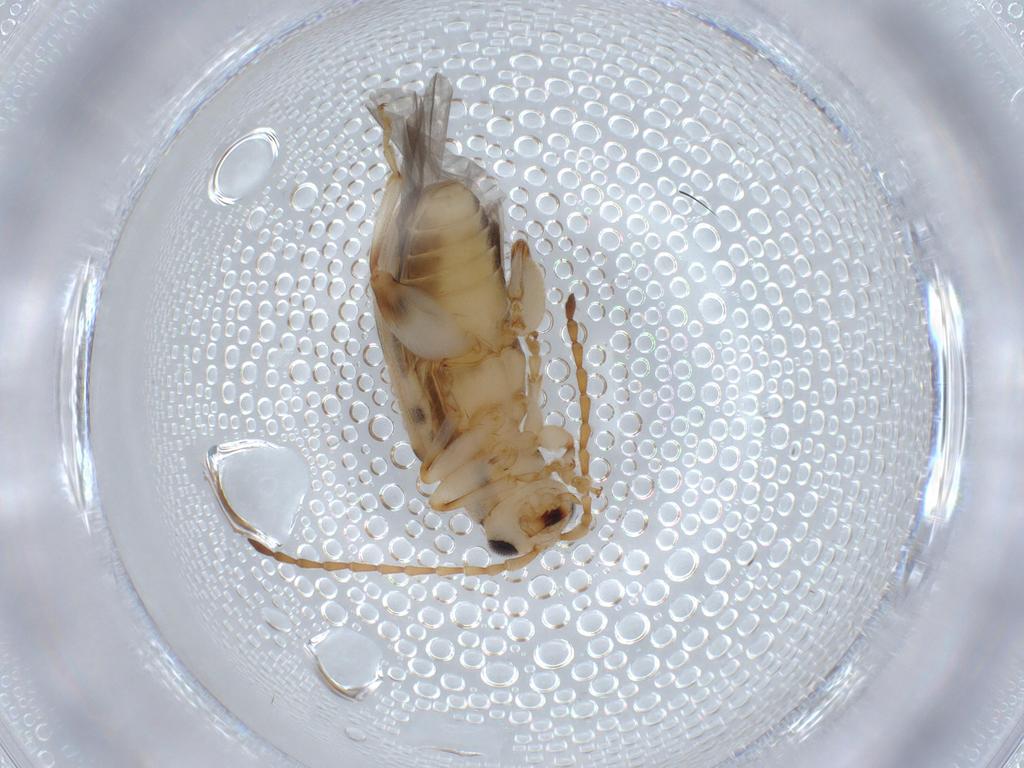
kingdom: Animalia
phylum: Arthropoda
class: Insecta
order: Coleoptera
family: Chrysomelidae
